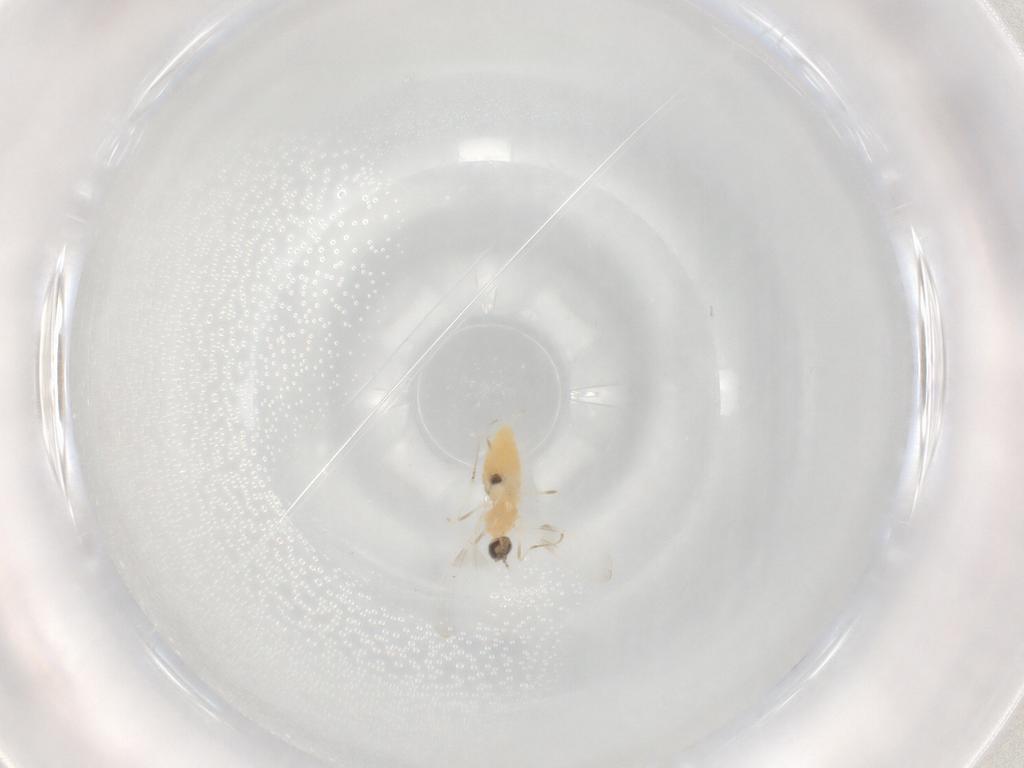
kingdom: Animalia
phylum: Arthropoda
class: Insecta
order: Diptera
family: Cecidomyiidae
